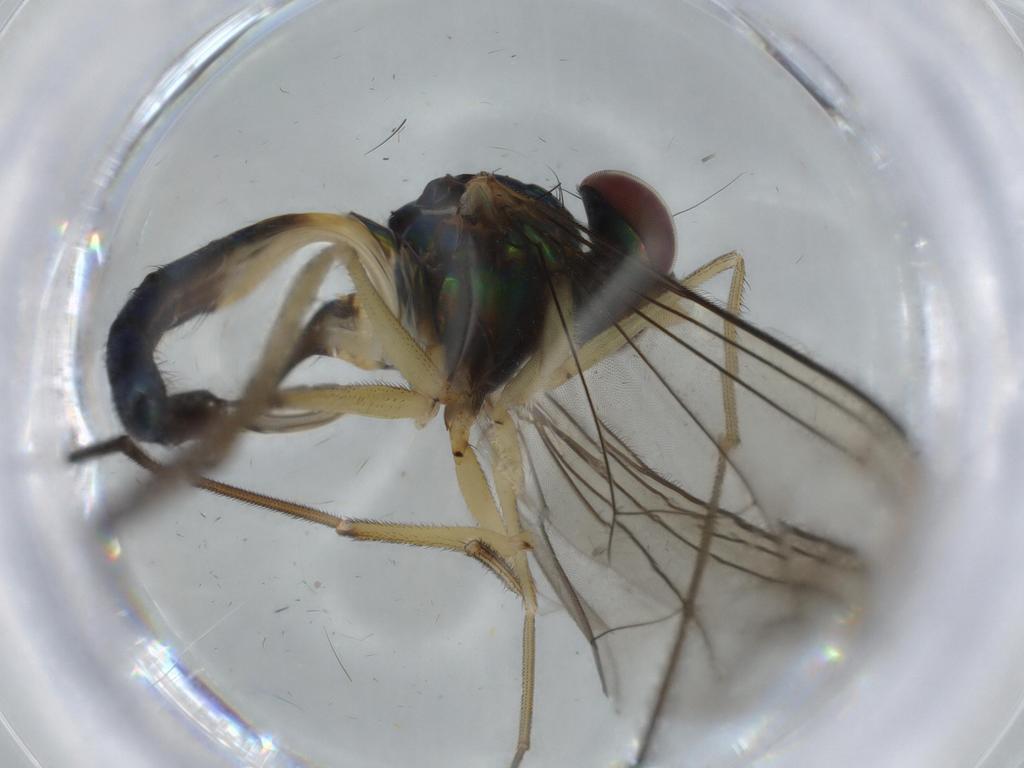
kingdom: Animalia
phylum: Arthropoda
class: Insecta
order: Diptera
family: Dolichopodidae
